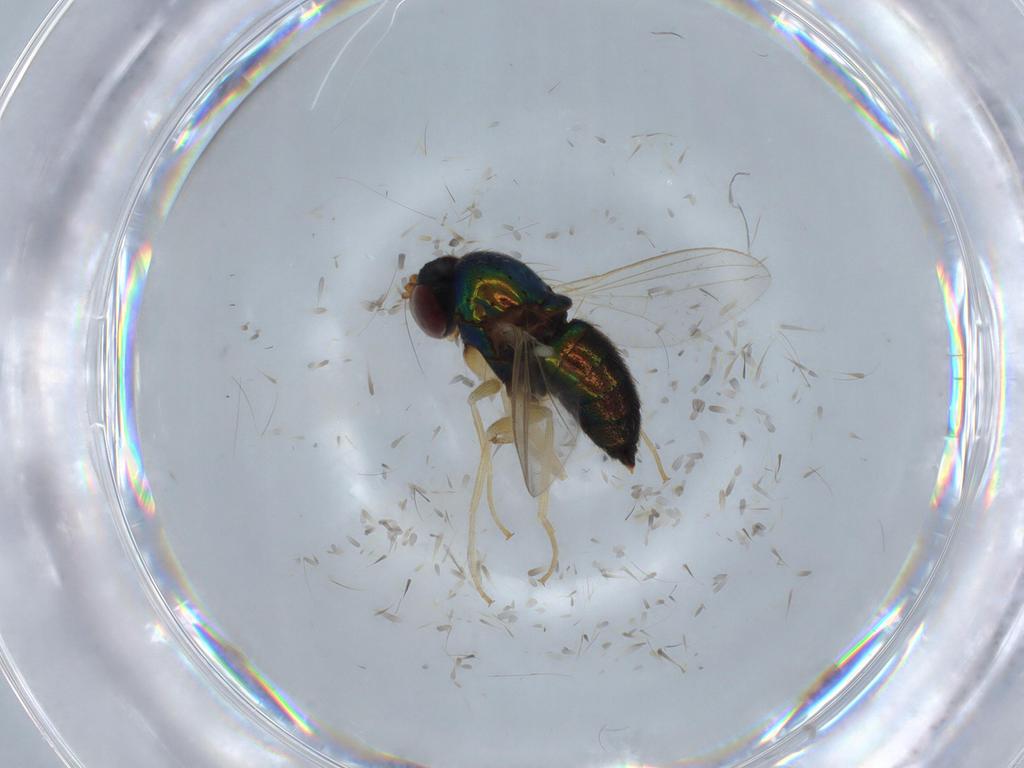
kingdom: Animalia
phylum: Arthropoda
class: Insecta
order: Diptera
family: Dolichopodidae
